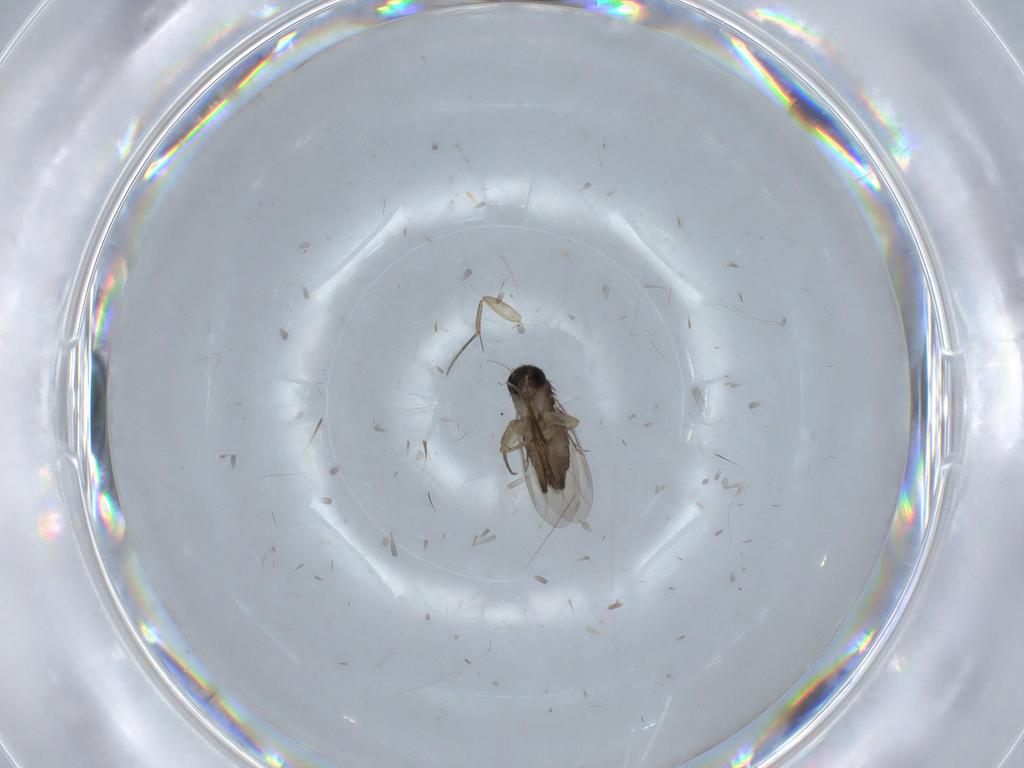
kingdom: Animalia
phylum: Arthropoda
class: Insecta
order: Diptera
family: Phoridae
